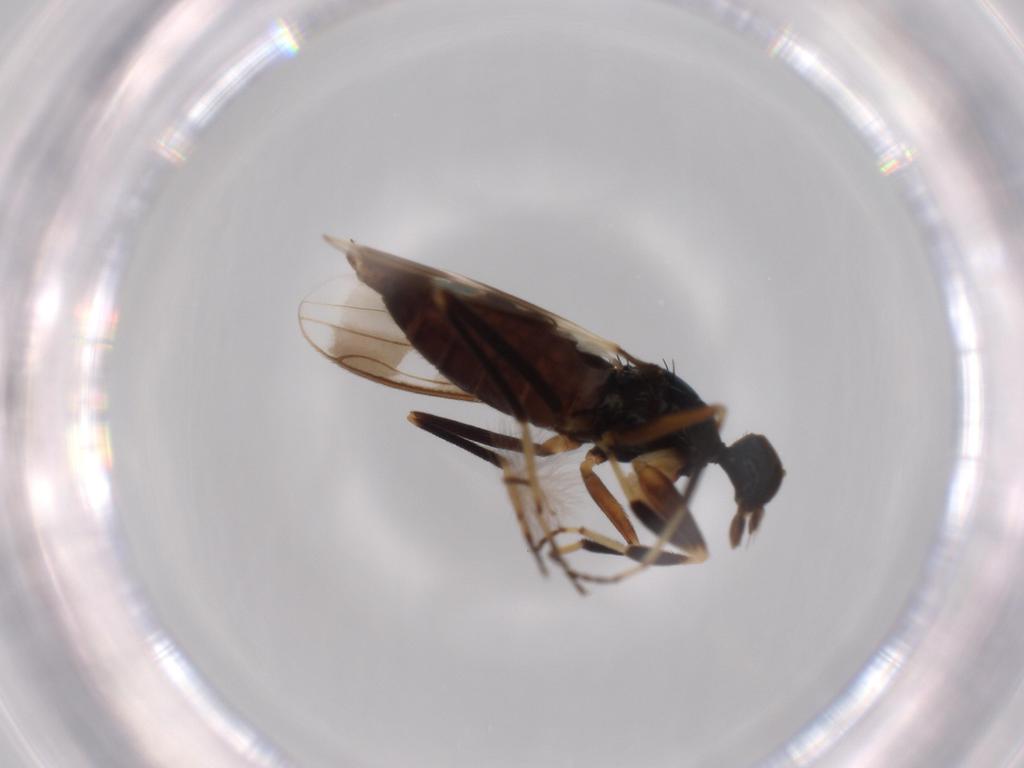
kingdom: Animalia
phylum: Arthropoda
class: Insecta
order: Diptera
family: Hybotidae
